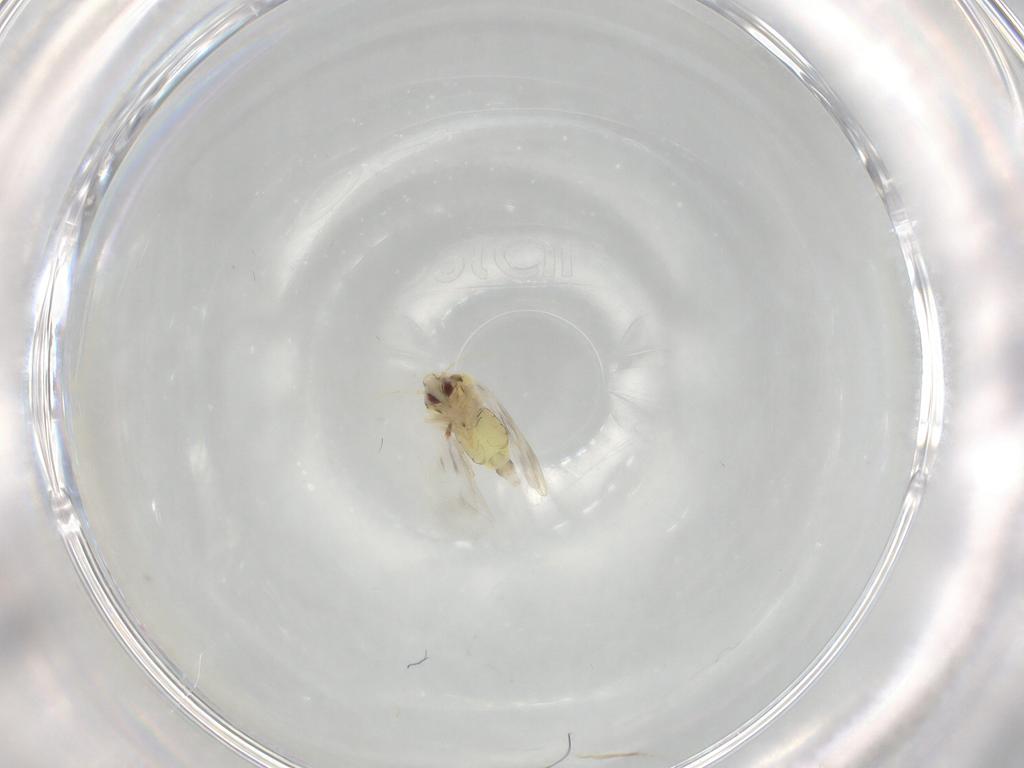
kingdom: Animalia
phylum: Arthropoda
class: Insecta
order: Hemiptera
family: Aleyrodidae
